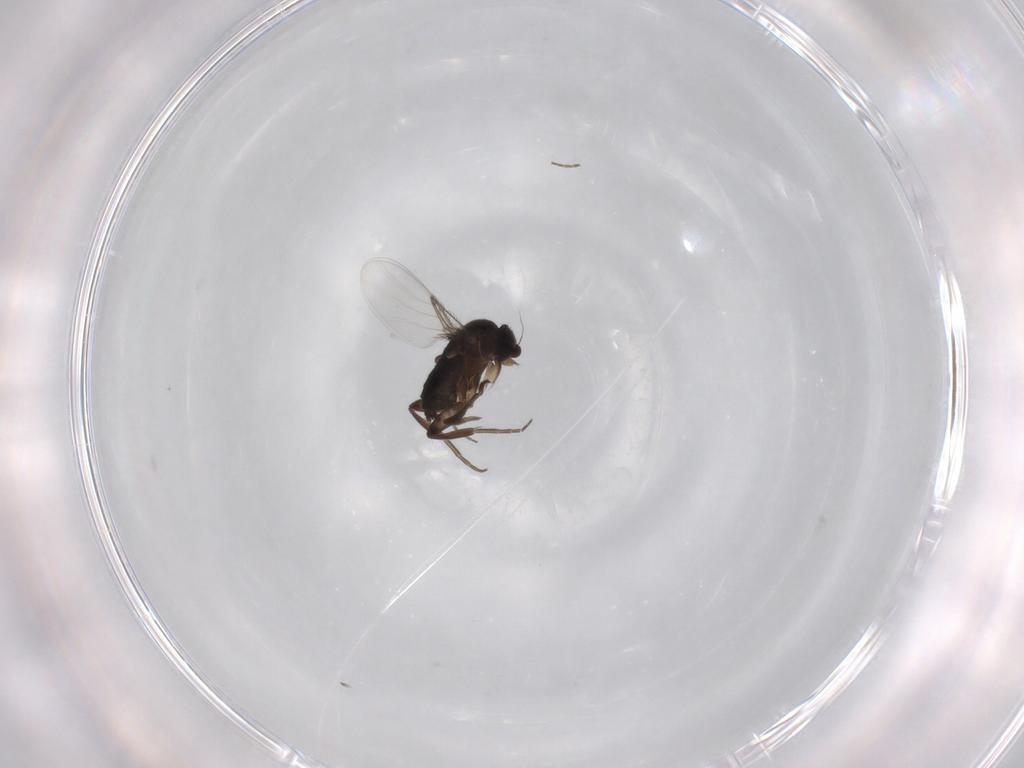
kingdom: Animalia
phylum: Arthropoda
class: Insecta
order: Diptera
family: Phoridae
